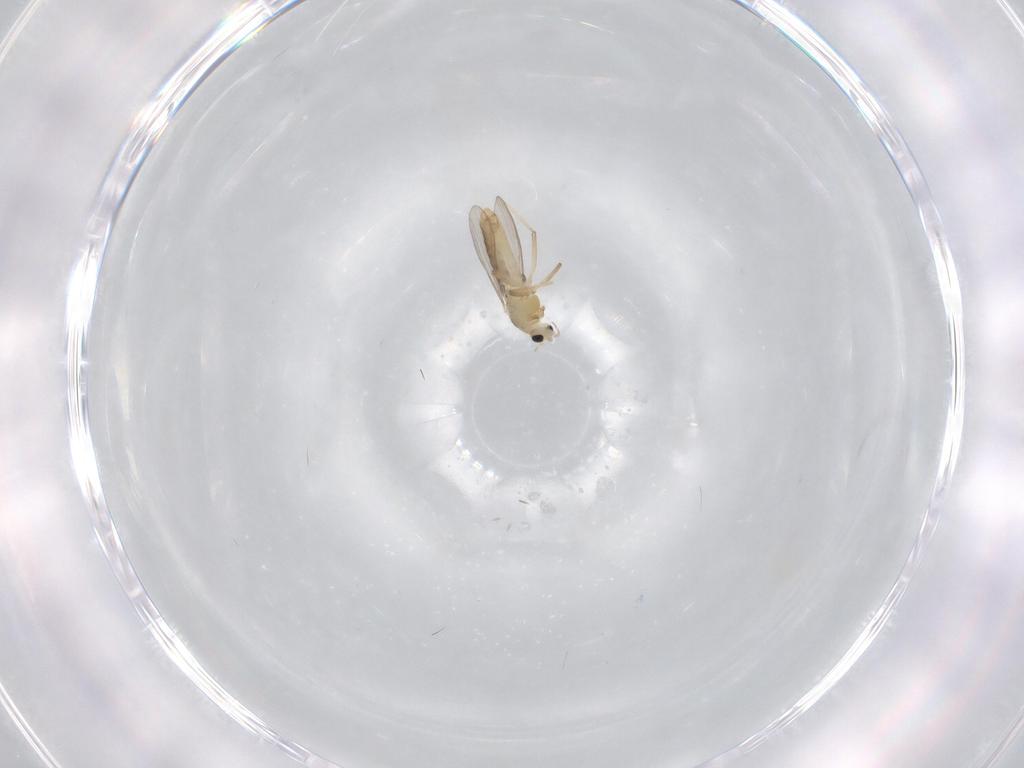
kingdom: Animalia
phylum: Arthropoda
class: Insecta
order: Diptera
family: Chironomidae
